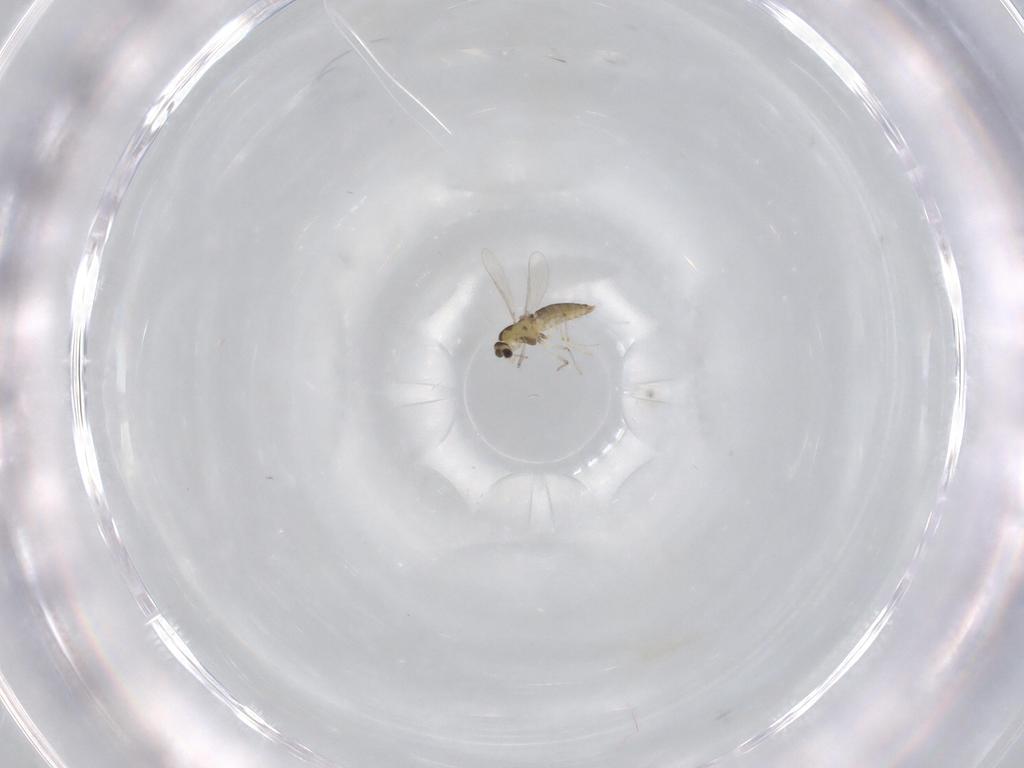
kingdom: Animalia
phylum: Arthropoda
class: Insecta
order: Diptera
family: Chironomidae
